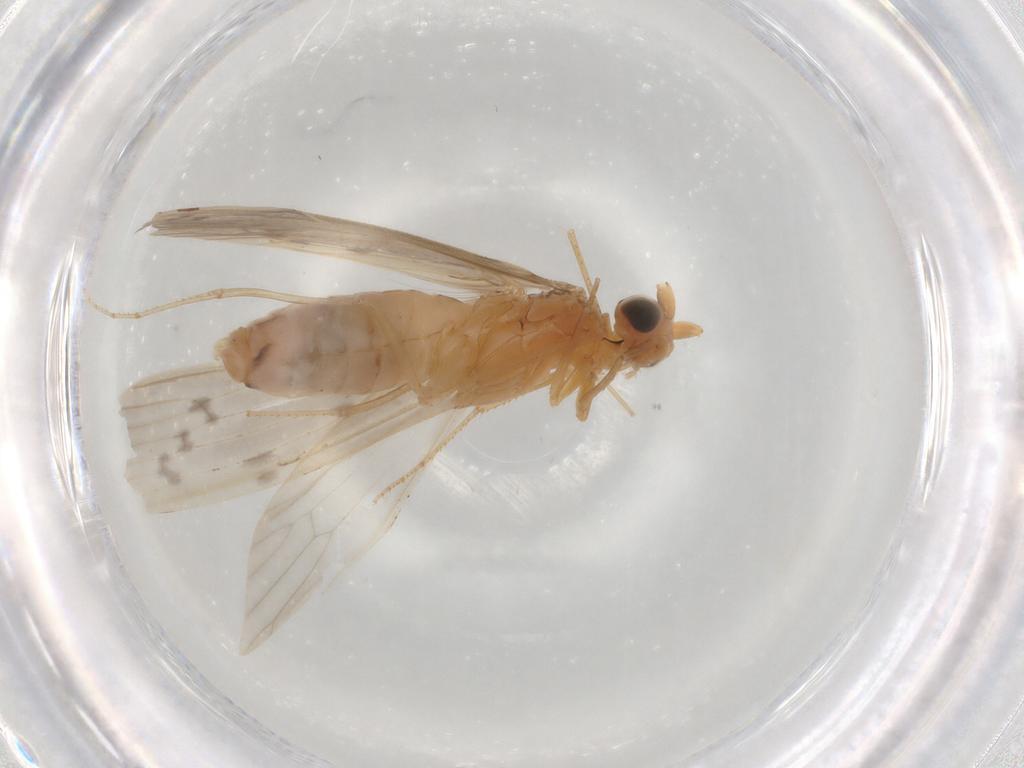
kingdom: Animalia
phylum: Arthropoda
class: Insecta
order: Trichoptera
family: Leptoceridae
